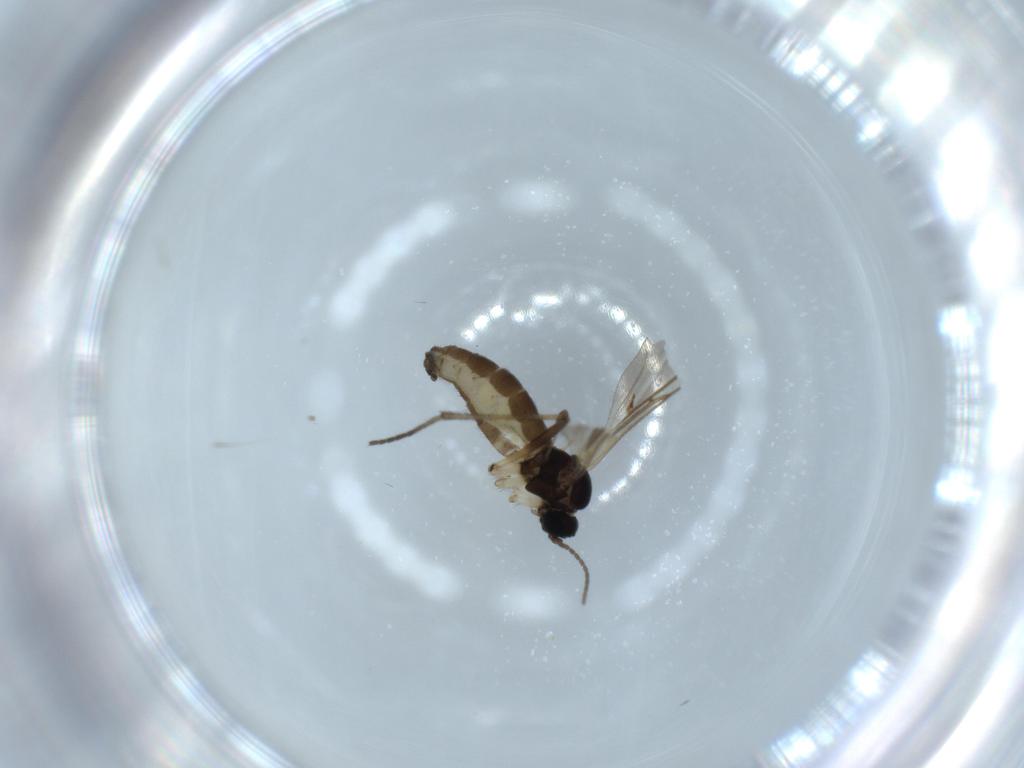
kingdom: Animalia
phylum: Arthropoda
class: Insecta
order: Diptera
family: Sciaridae
